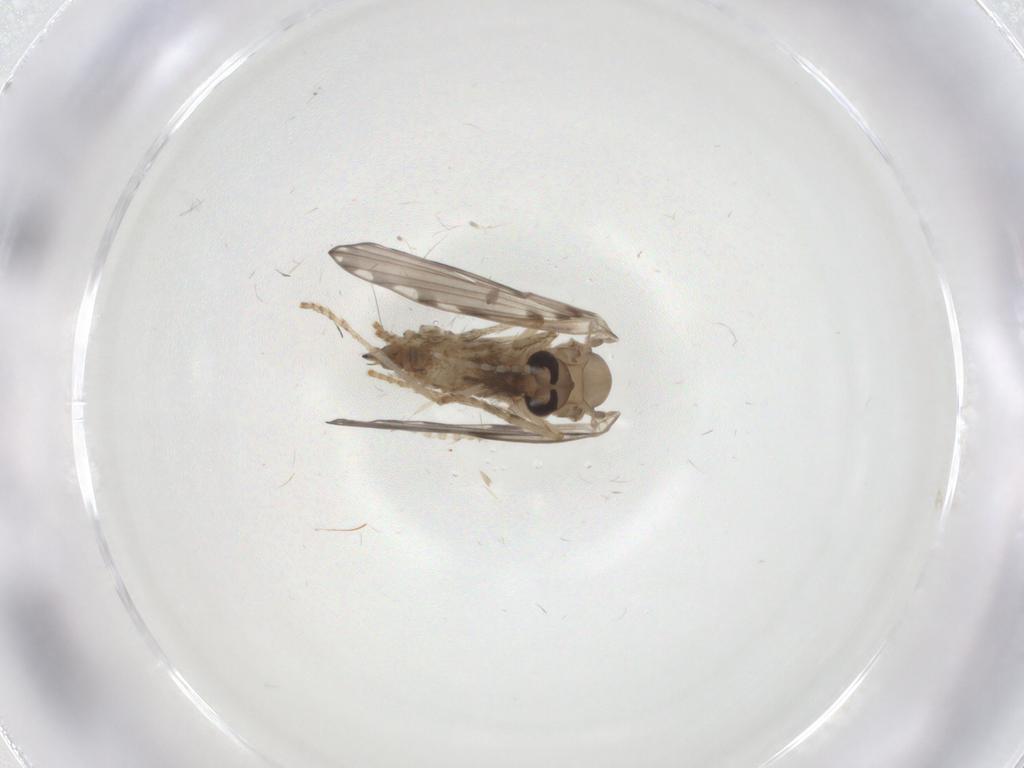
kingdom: Animalia
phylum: Arthropoda
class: Insecta
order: Diptera
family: Psychodidae
